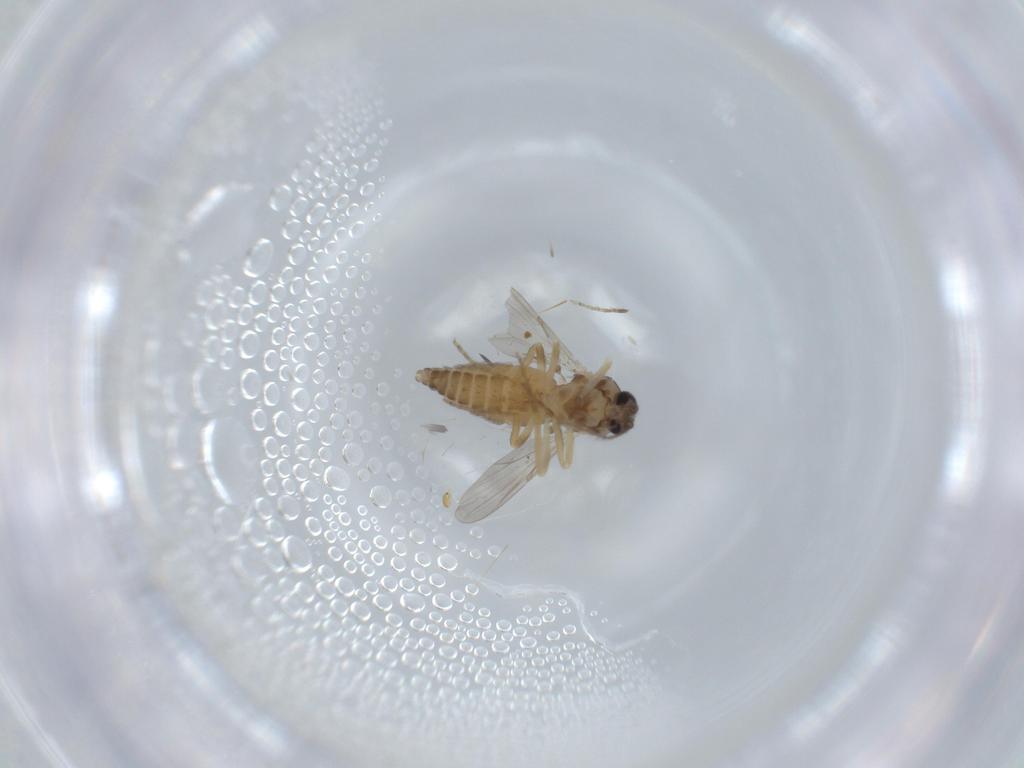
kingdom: Animalia
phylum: Arthropoda
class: Insecta
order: Diptera
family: Ceratopogonidae
